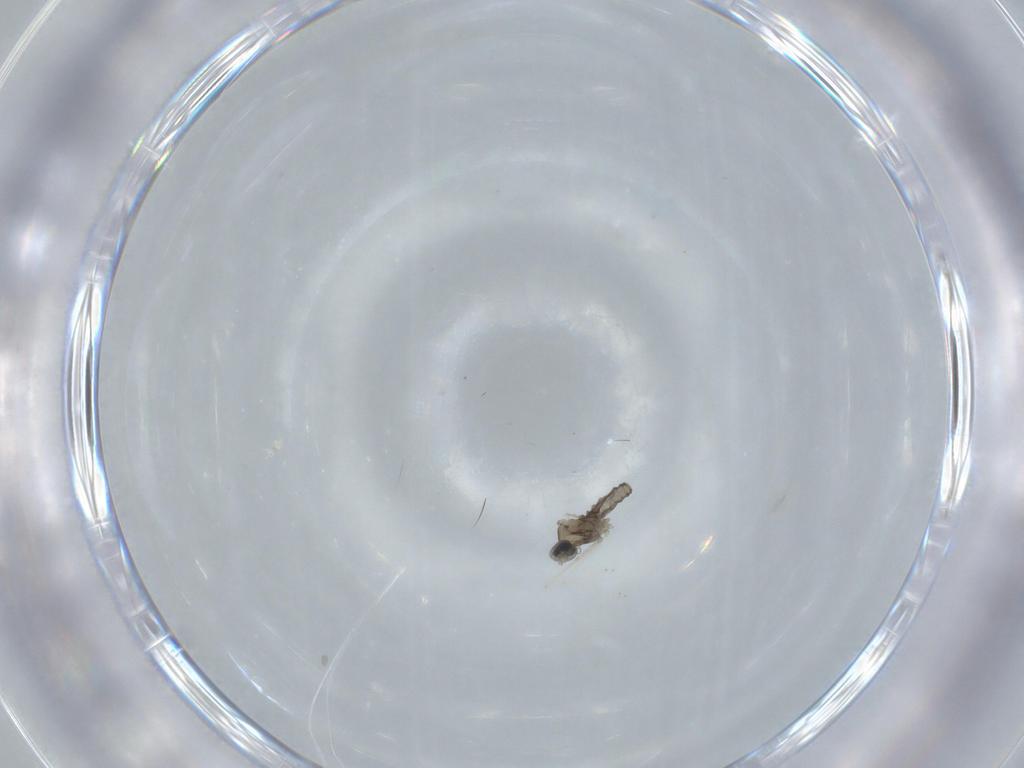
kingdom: Animalia
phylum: Arthropoda
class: Insecta
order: Diptera
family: Cecidomyiidae
